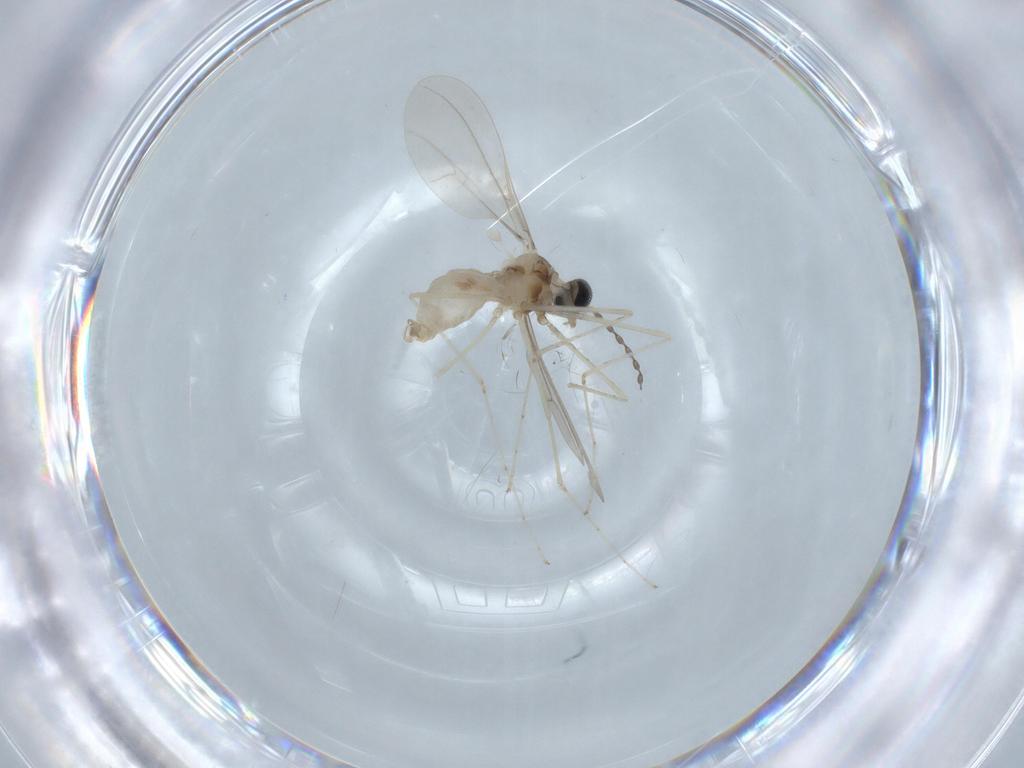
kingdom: Animalia
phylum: Arthropoda
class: Insecta
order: Diptera
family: Cecidomyiidae
